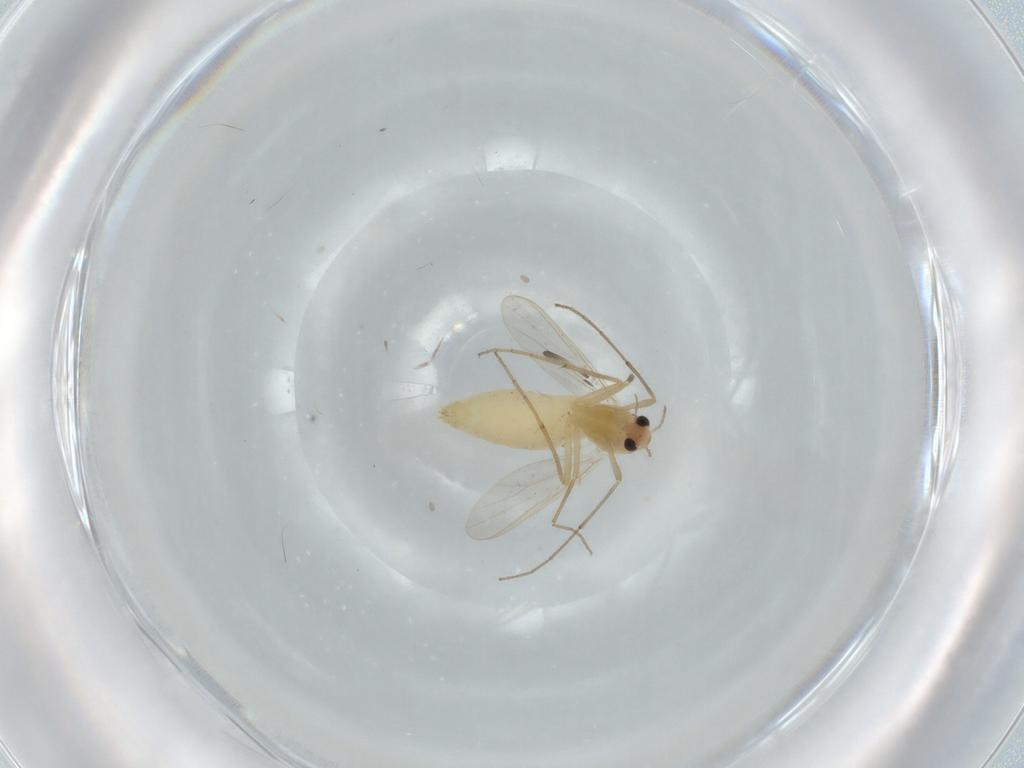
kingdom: Animalia
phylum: Arthropoda
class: Insecta
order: Diptera
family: Chironomidae
